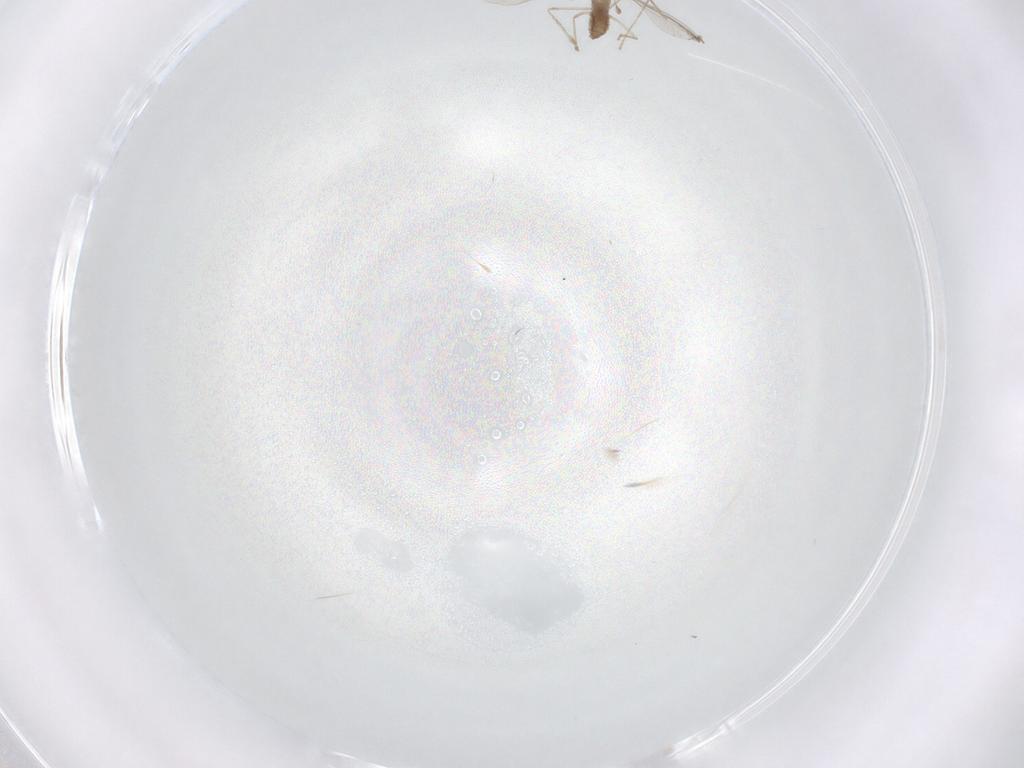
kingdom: Animalia
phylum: Arthropoda
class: Insecta
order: Diptera
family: Cecidomyiidae
